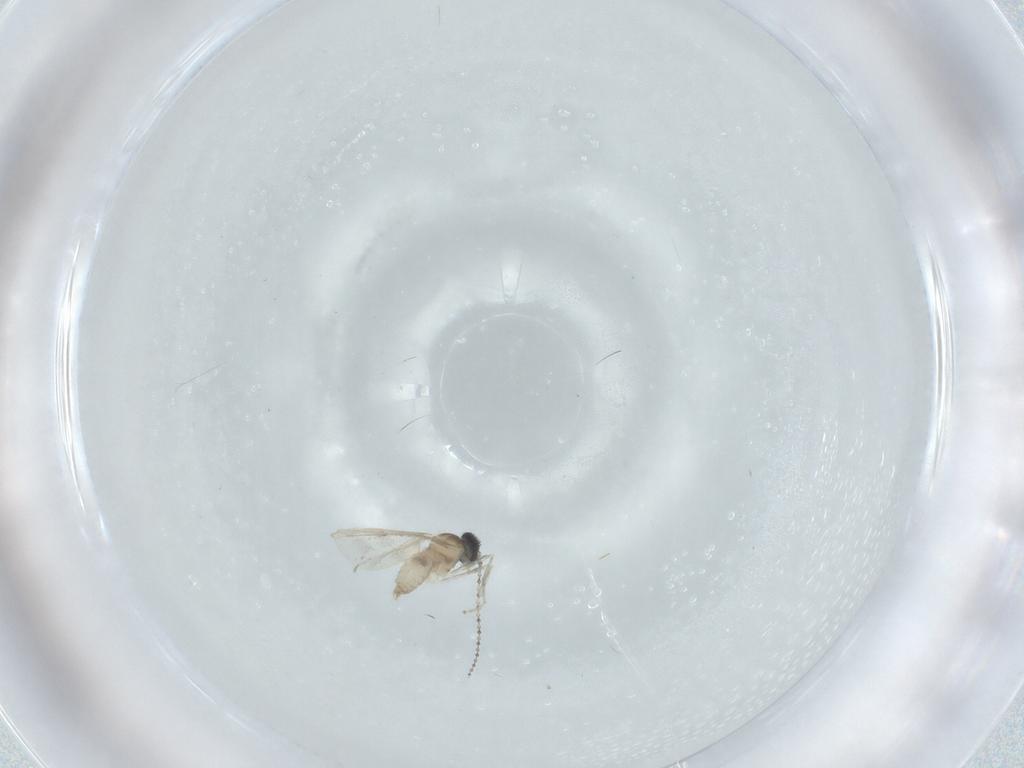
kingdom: Animalia
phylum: Arthropoda
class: Insecta
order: Diptera
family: Cecidomyiidae
